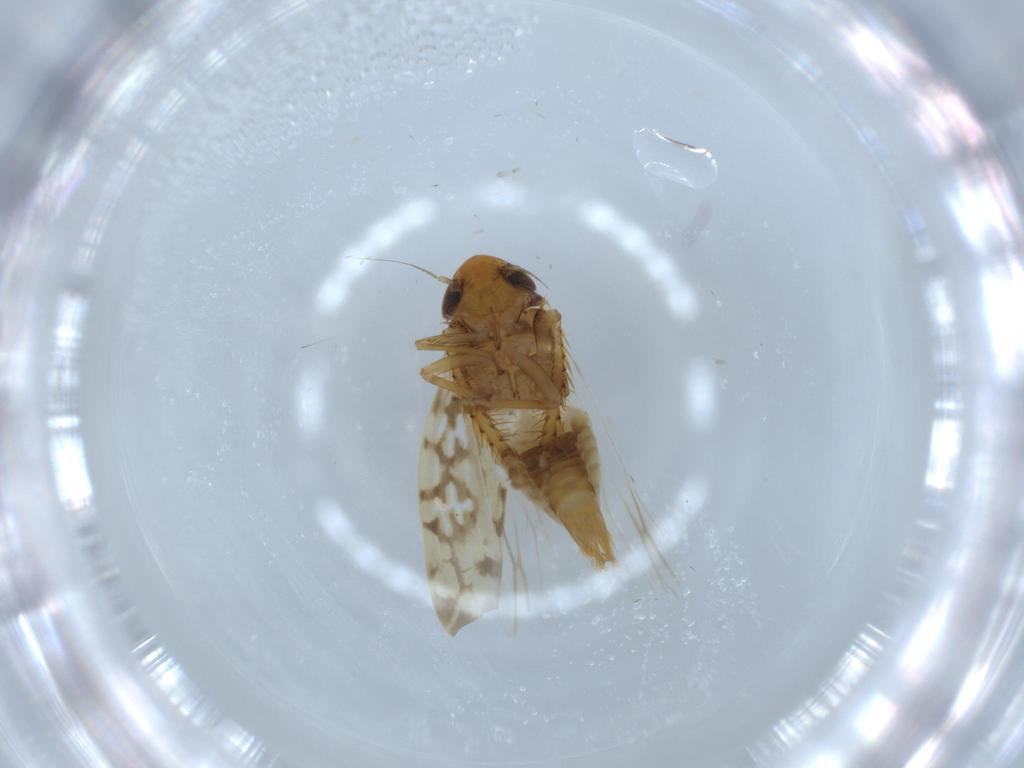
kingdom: Animalia
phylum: Arthropoda
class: Insecta
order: Hemiptera
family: Cicadellidae
